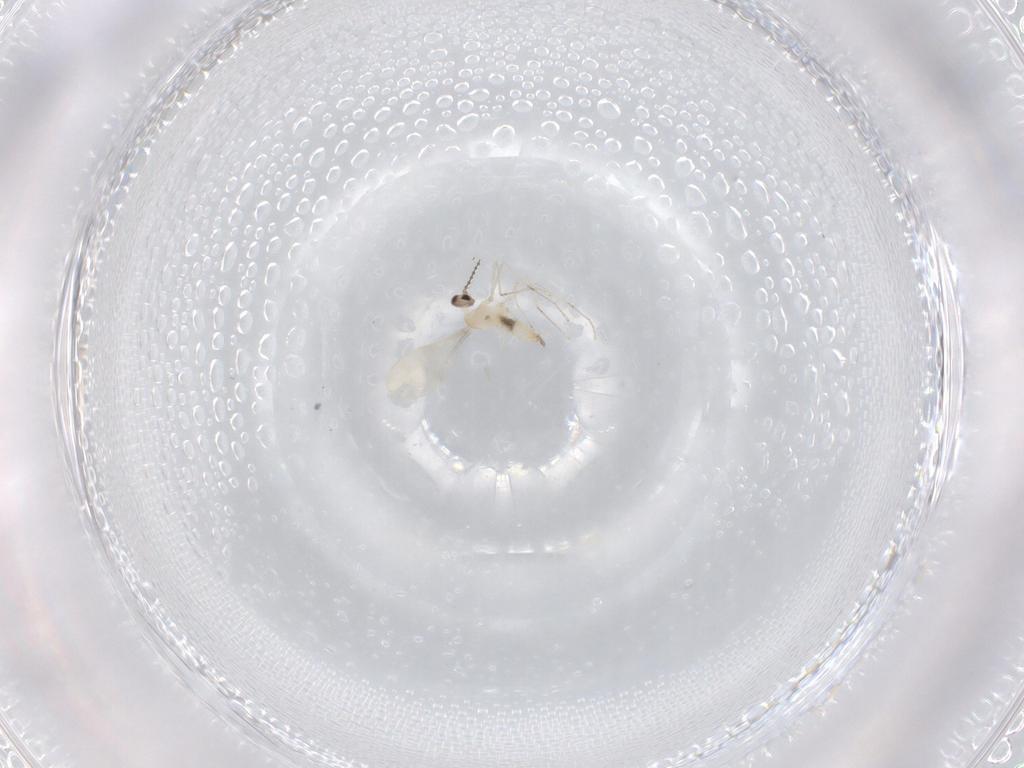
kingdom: Animalia
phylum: Arthropoda
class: Insecta
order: Diptera
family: Cecidomyiidae
